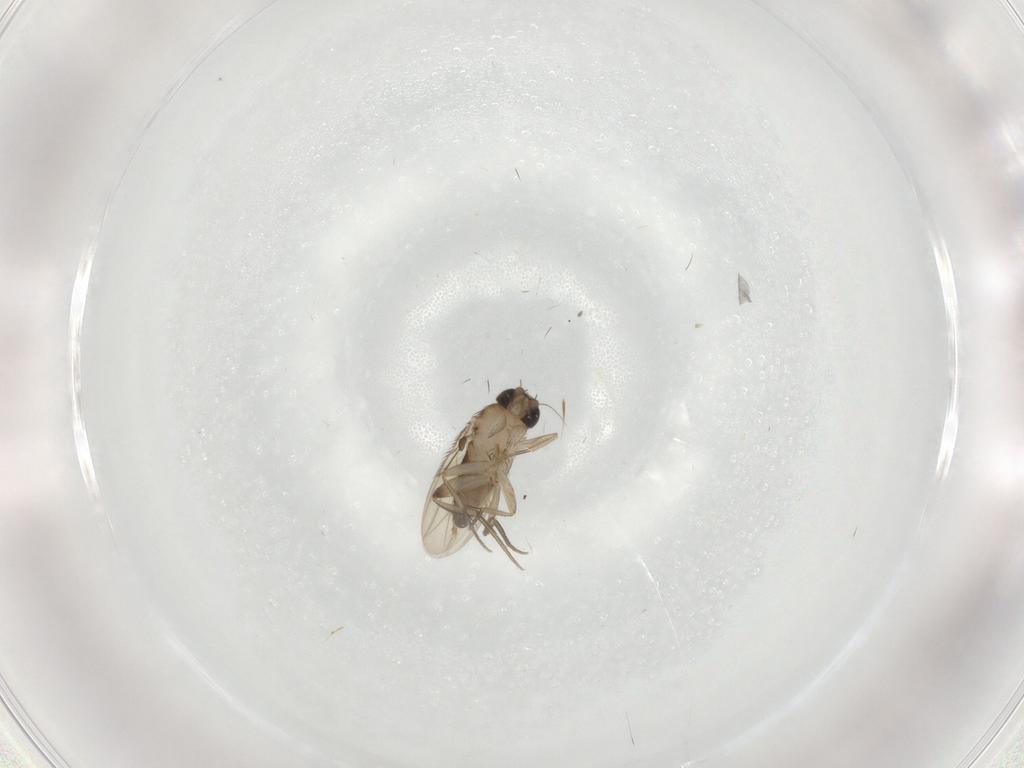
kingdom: Animalia
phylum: Arthropoda
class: Insecta
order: Diptera
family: Phoridae
